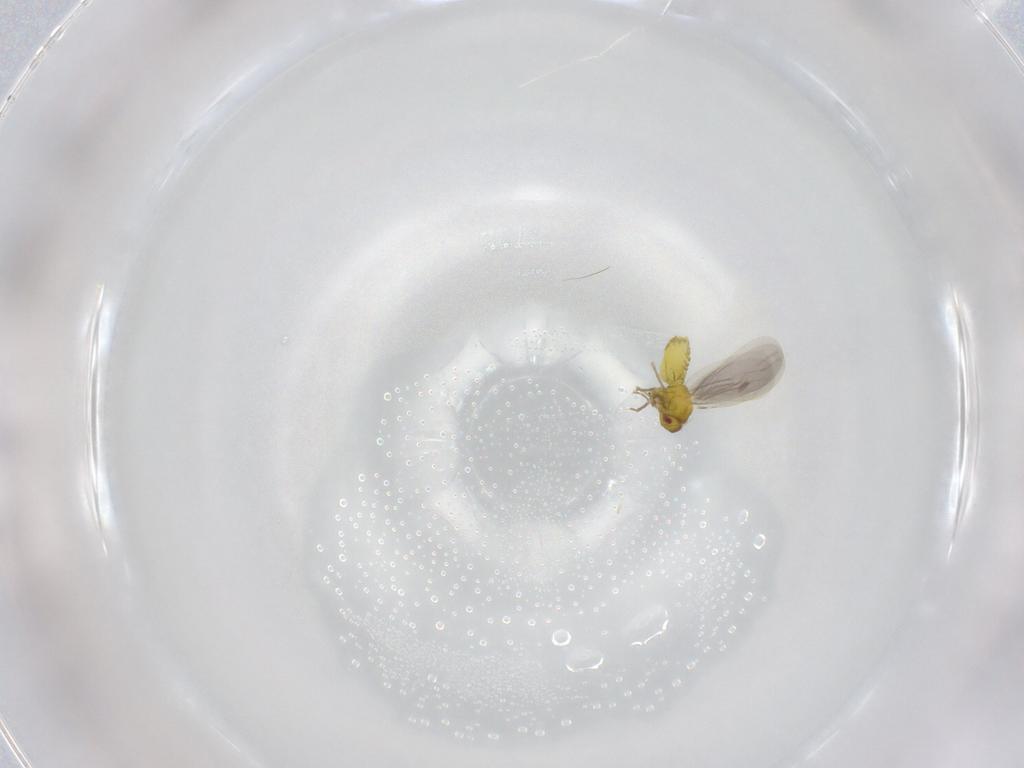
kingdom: Animalia
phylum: Arthropoda
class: Insecta
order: Hemiptera
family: Aleyrodidae
